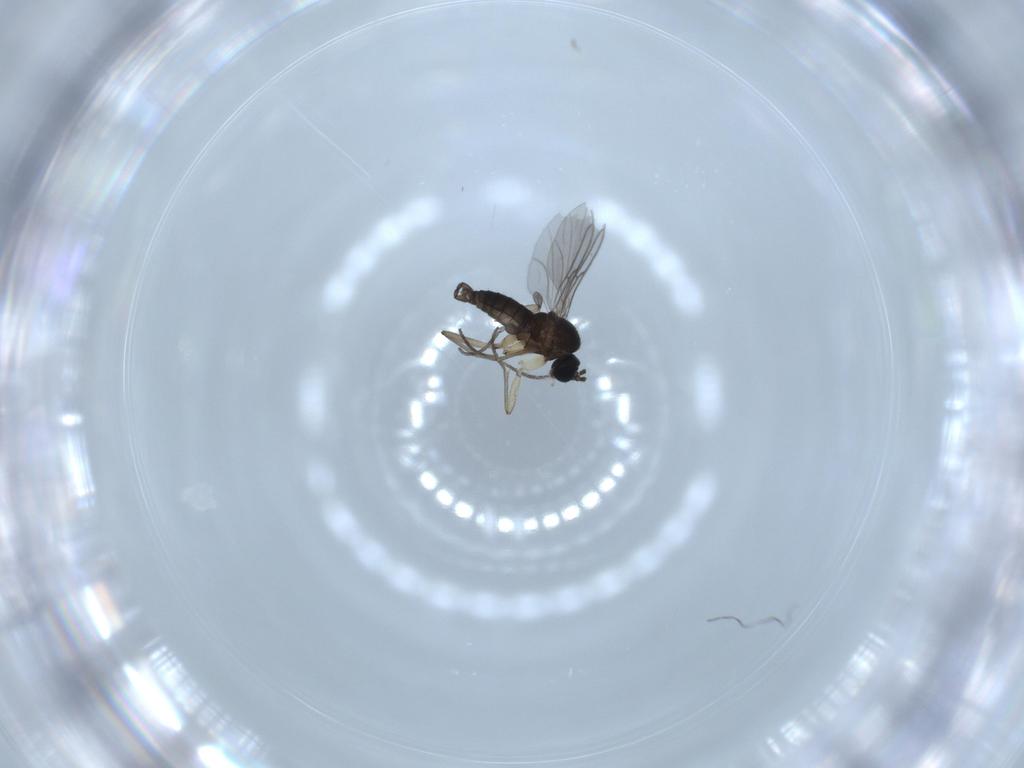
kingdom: Animalia
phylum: Arthropoda
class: Insecta
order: Diptera
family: Sciaridae
